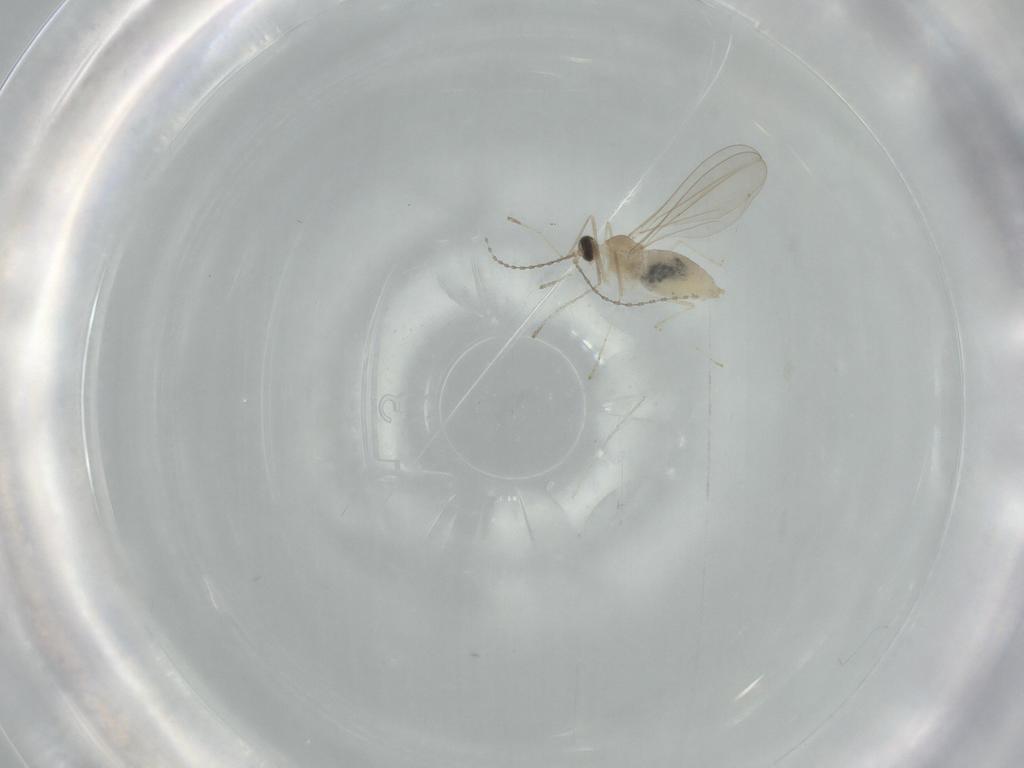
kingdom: Animalia
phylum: Arthropoda
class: Insecta
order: Diptera
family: Cecidomyiidae
